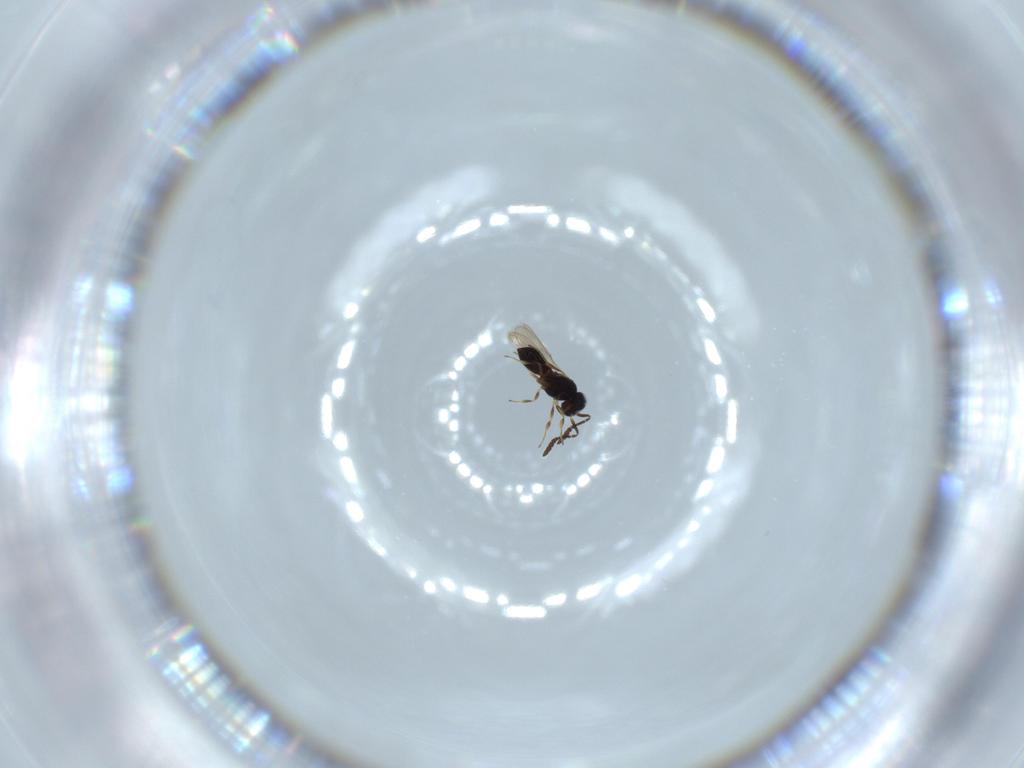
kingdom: Animalia
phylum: Arthropoda
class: Insecta
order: Hymenoptera
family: Scelionidae
